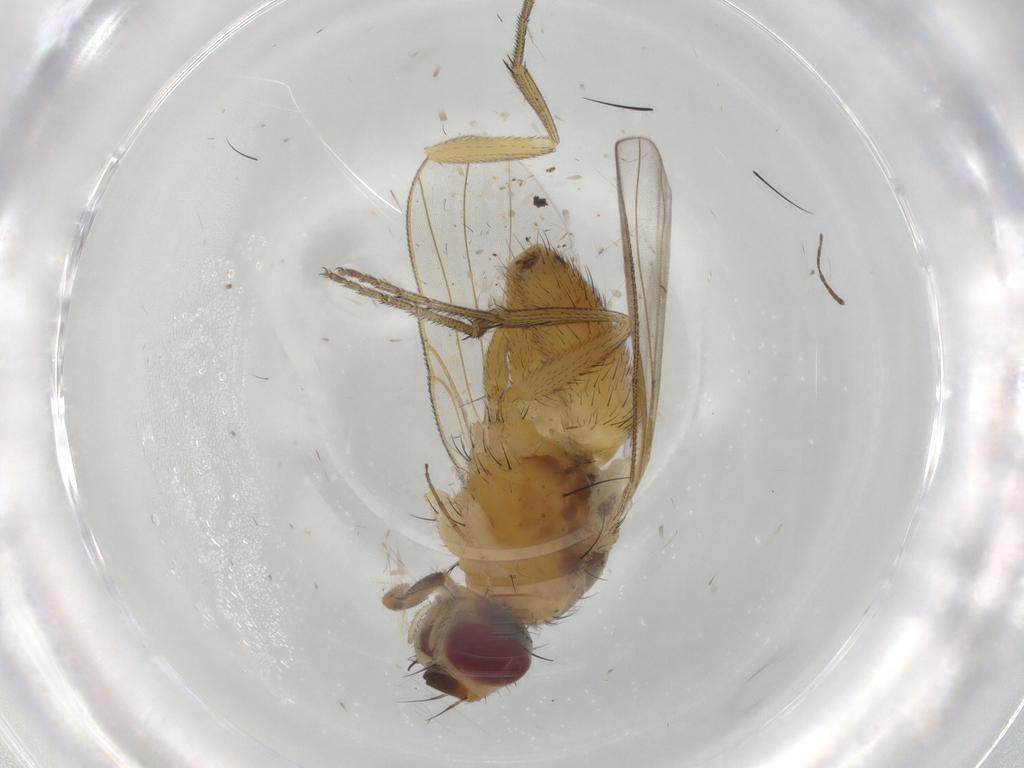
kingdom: Animalia
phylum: Arthropoda
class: Insecta
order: Diptera
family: Muscidae
